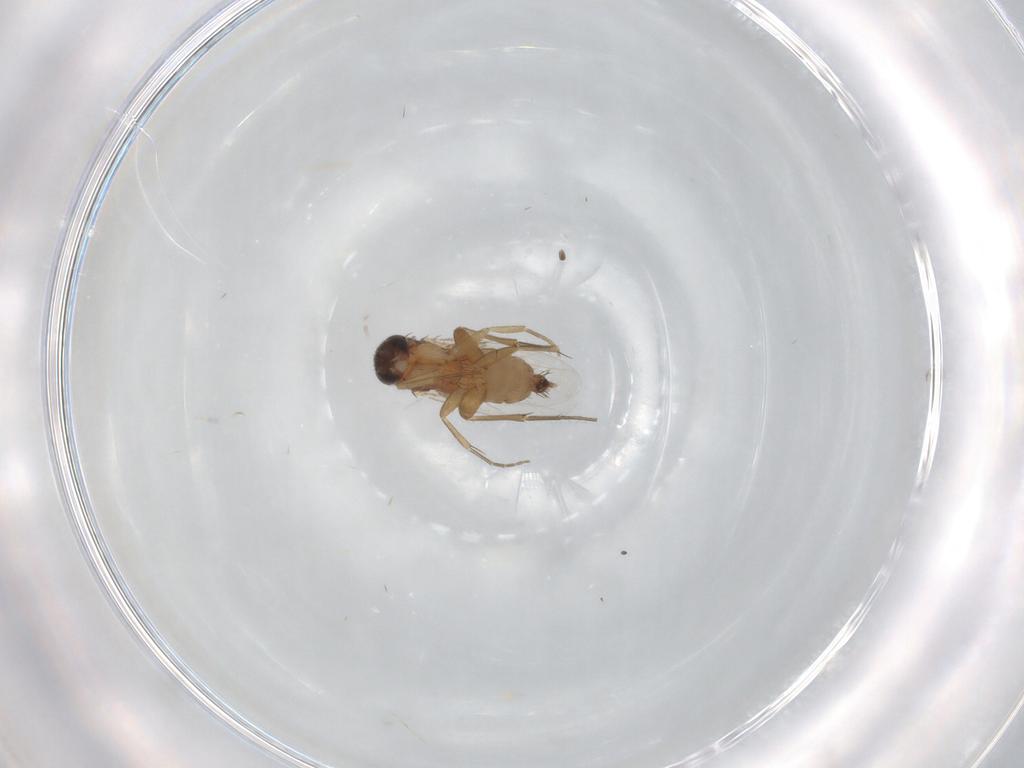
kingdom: Animalia
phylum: Arthropoda
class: Insecta
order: Diptera
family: Phoridae
